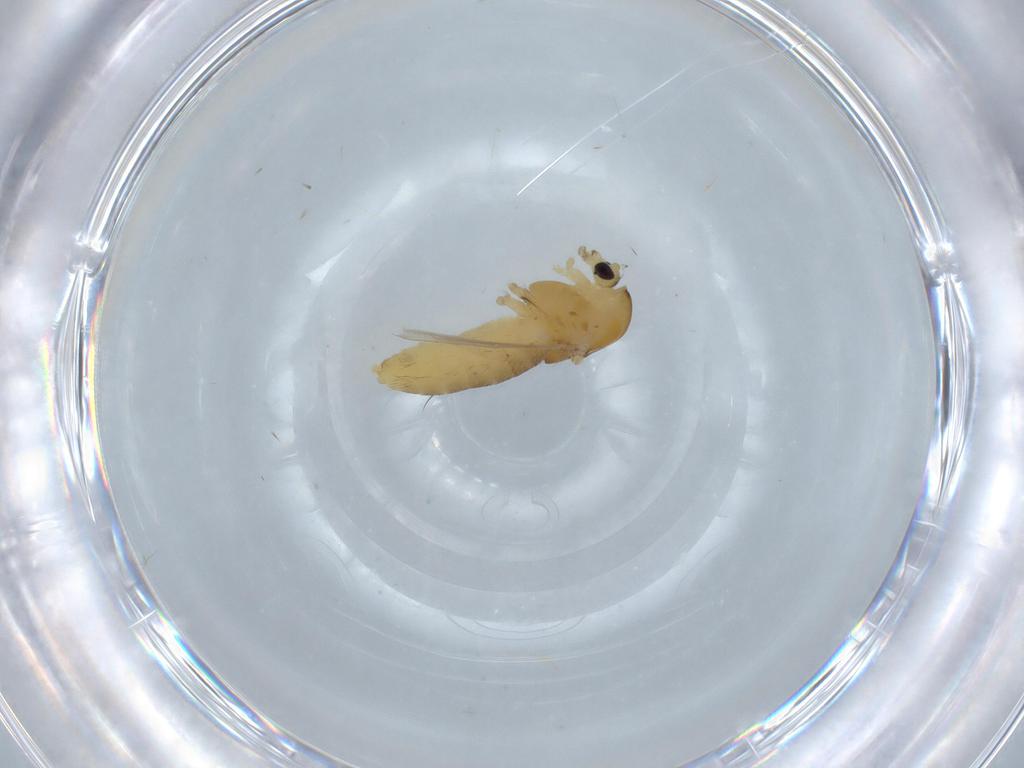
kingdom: Animalia
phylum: Arthropoda
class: Insecta
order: Diptera
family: Chironomidae
